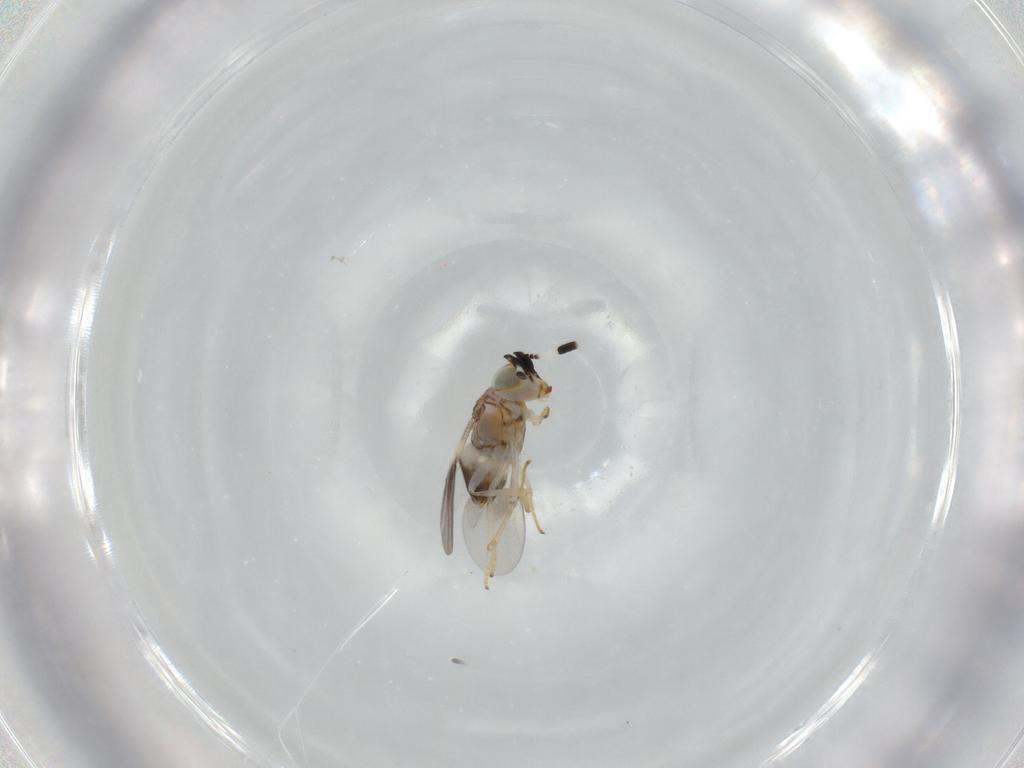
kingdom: Animalia
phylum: Arthropoda
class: Insecta
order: Hymenoptera
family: Encyrtidae
